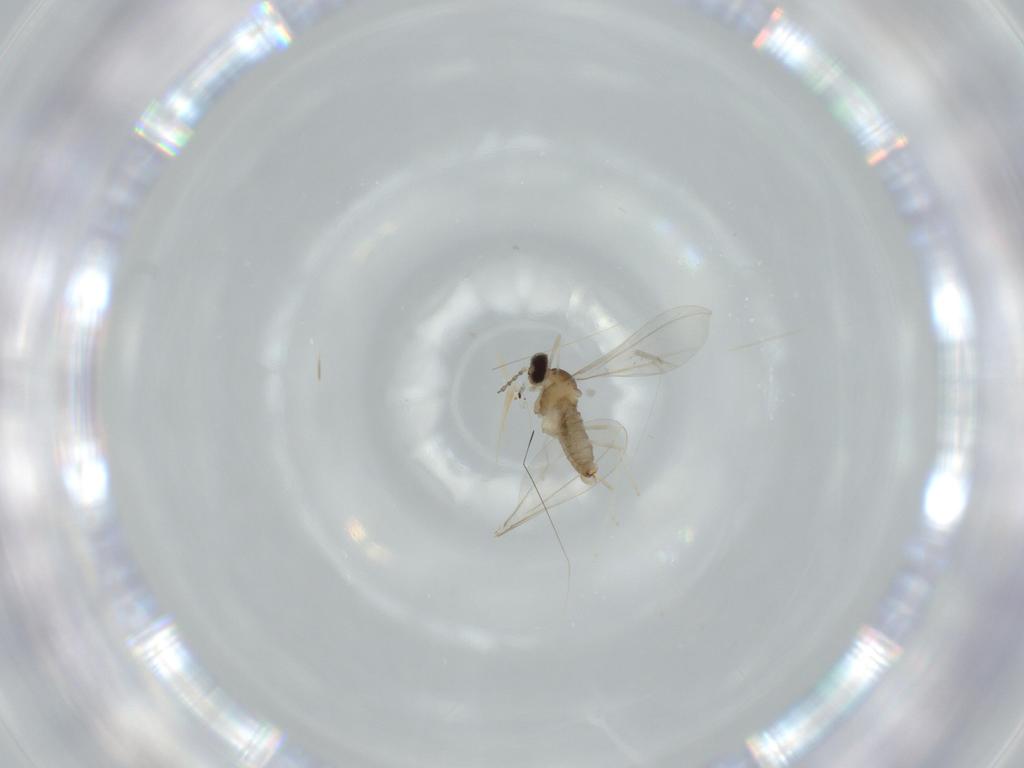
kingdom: Animalia
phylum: Arthropoda
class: Insecta
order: Diptera
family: Cecidomyiidae
